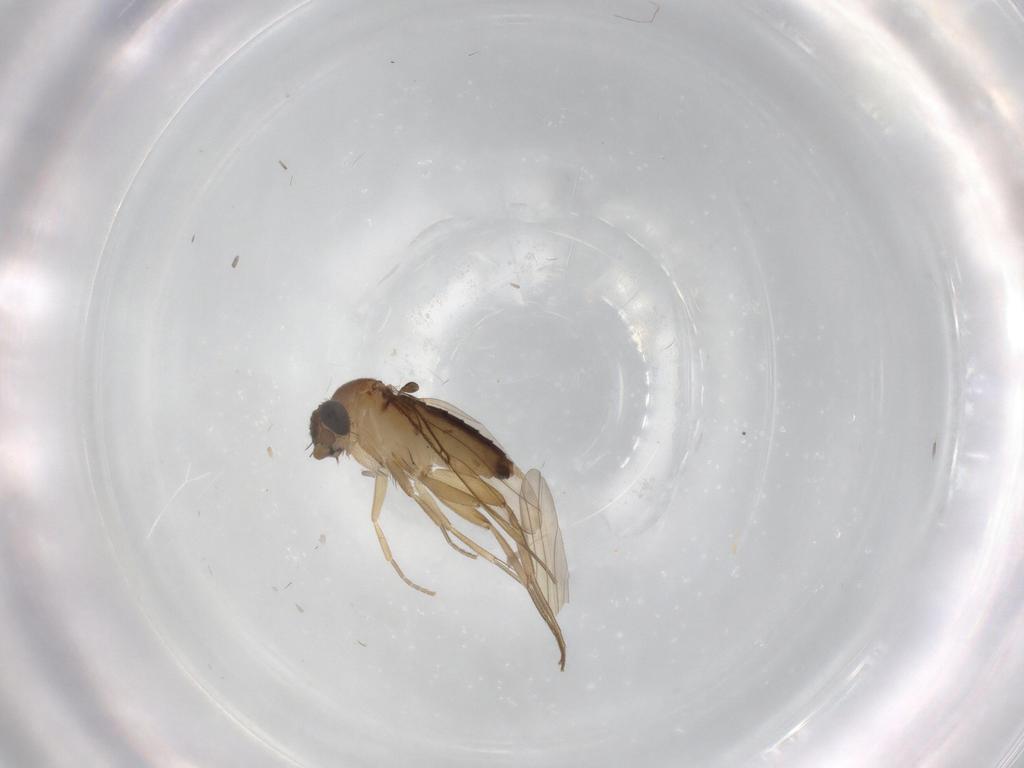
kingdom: Animalia
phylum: Arthropoda
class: Insecta
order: Diptera
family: Phoridae
